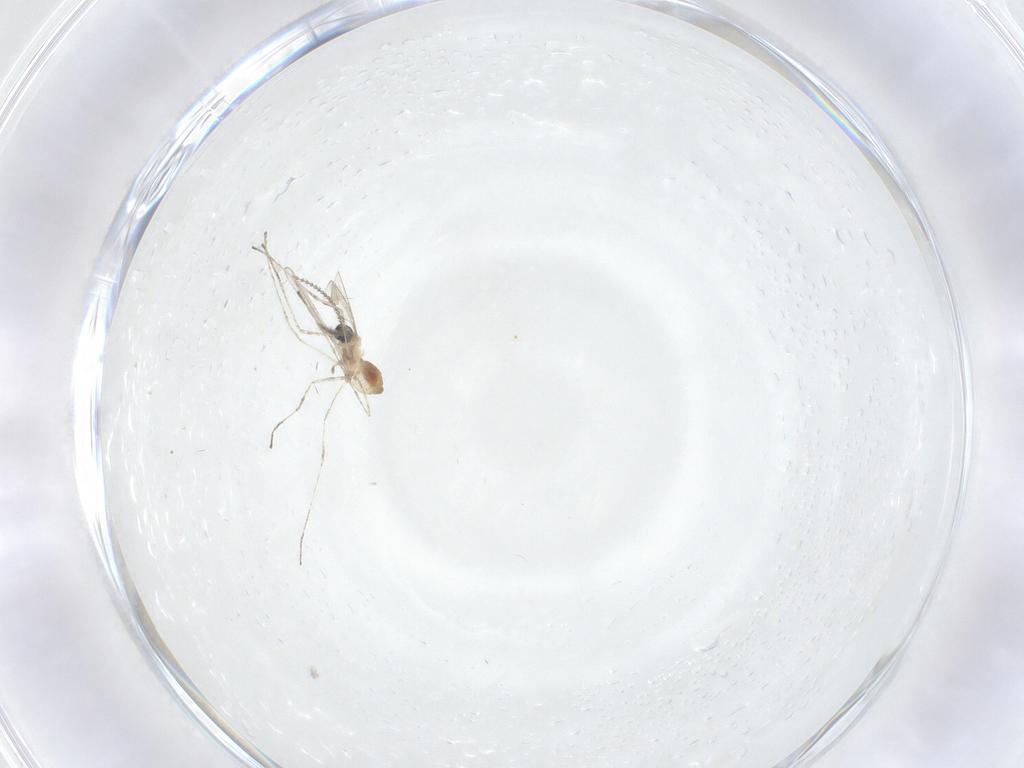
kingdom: Animalia
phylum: Arthropoda
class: Insecta
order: Diptera
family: Cecidomyiidae
